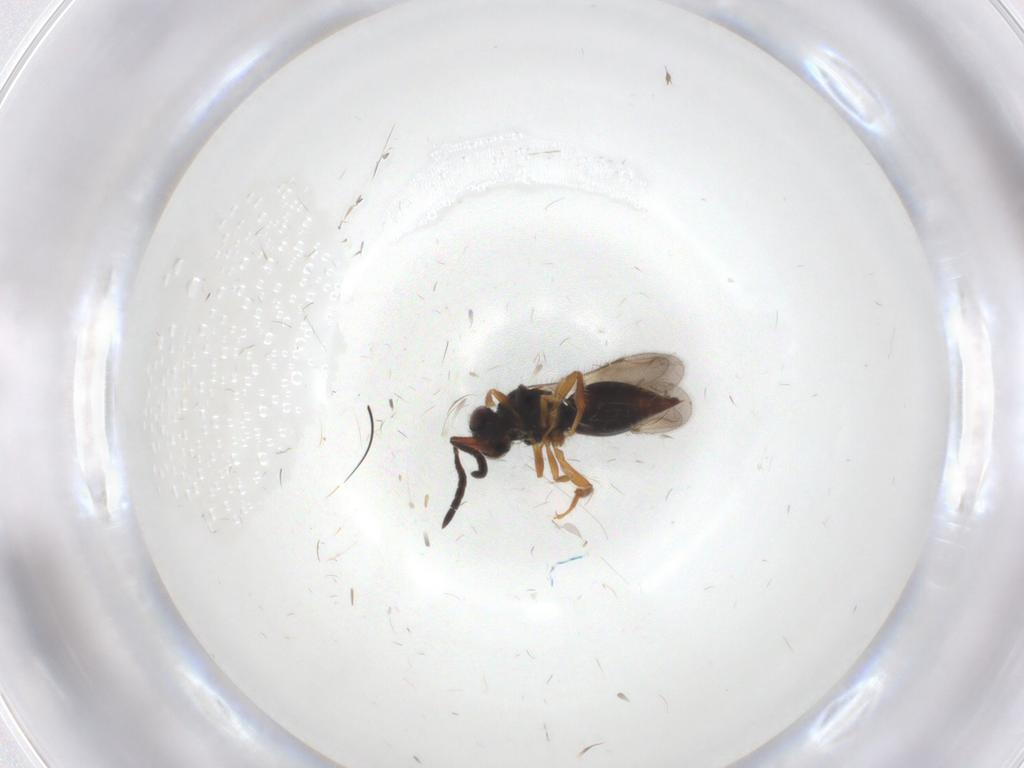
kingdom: Animalia
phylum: Arthropoda
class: Insecta
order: Hymenoptera
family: Ceraphronidae
